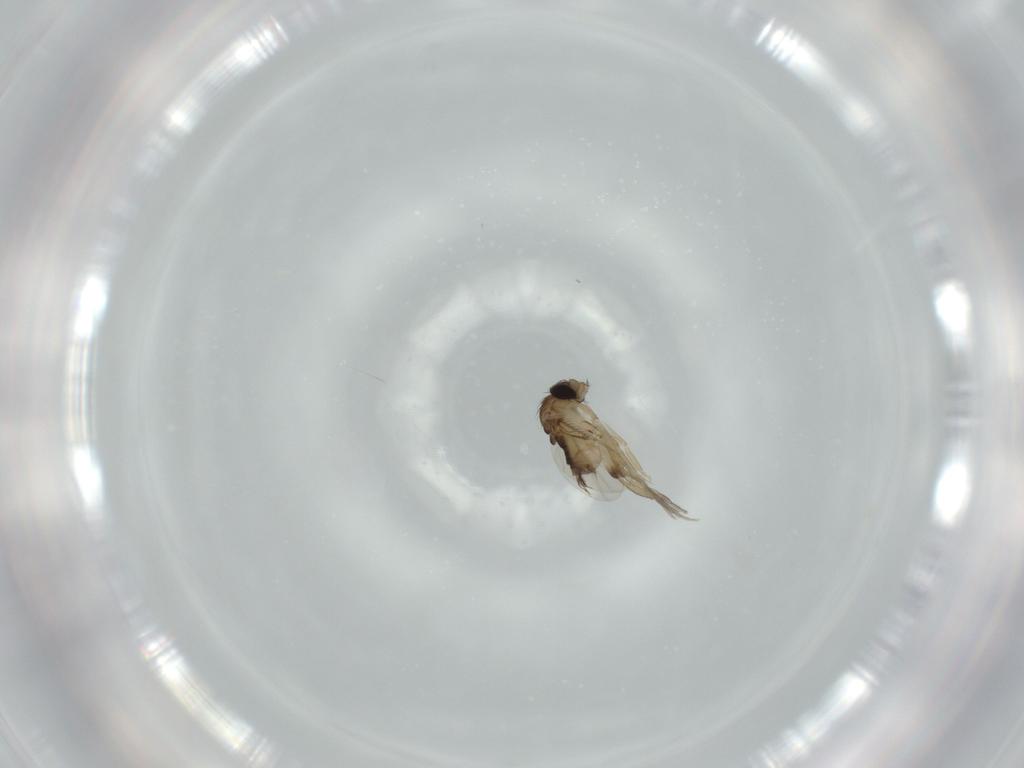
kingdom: Animalia
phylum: Arthropoda
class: Insecta
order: Diptera
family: Phoridae
